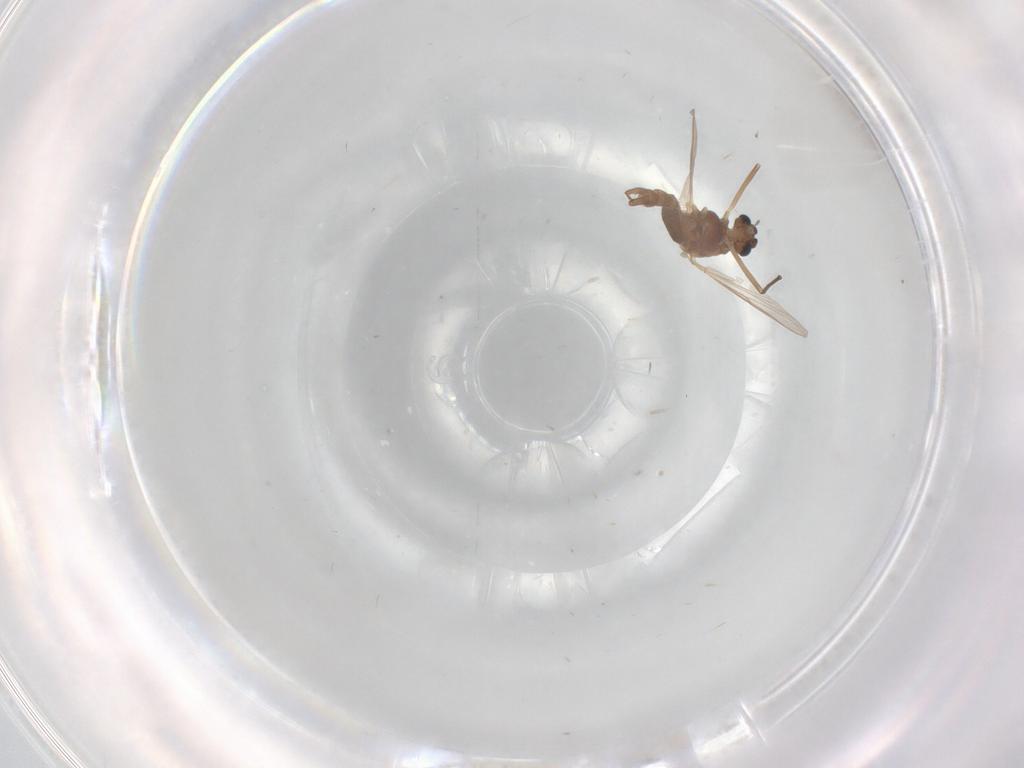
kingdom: Animalia
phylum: Arthropoda
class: Insecta
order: Diptera
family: Chironomidae
